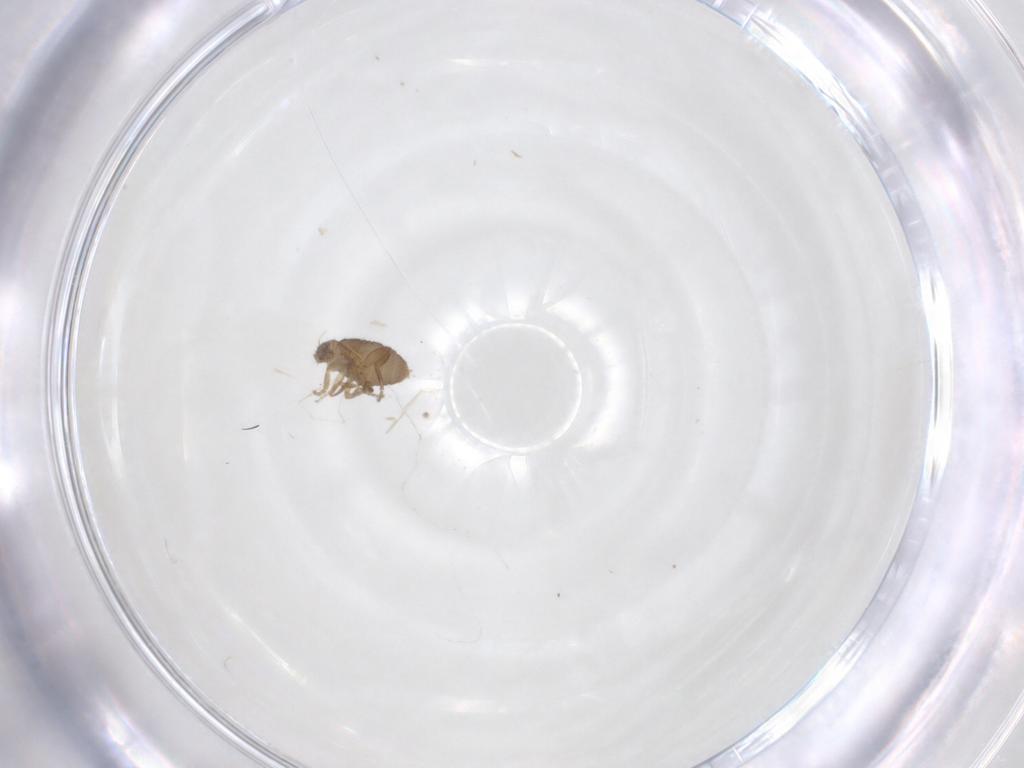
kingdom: Animalia
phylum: Arthropoda
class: Insecta
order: Diptera
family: Phoridae
